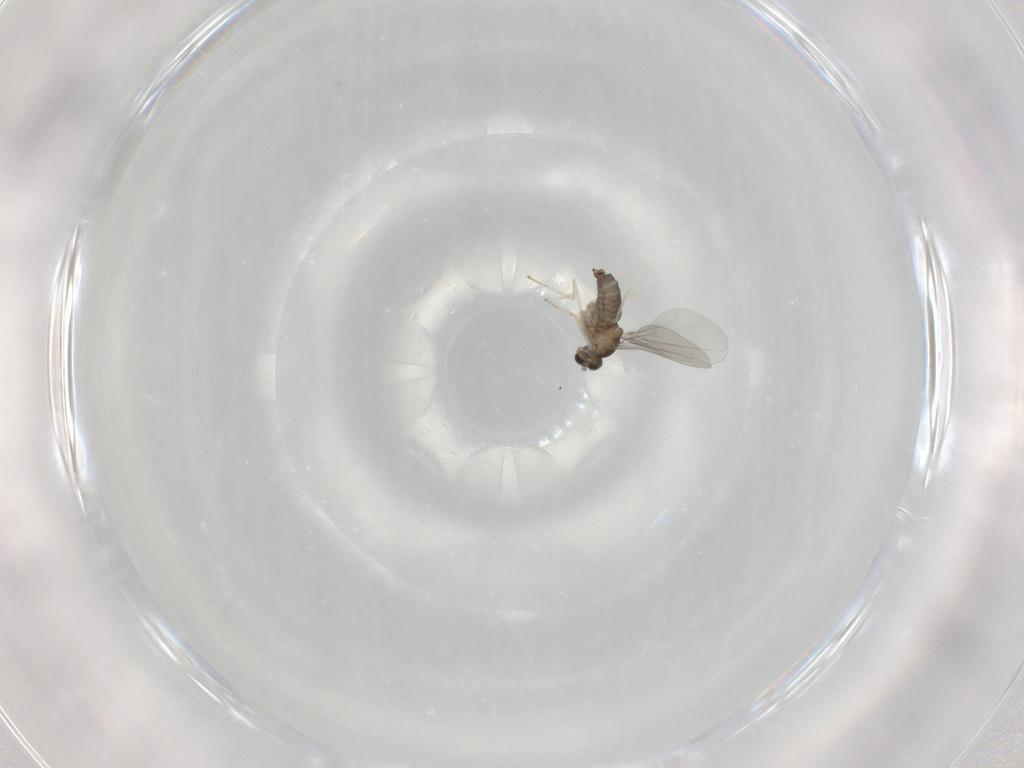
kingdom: Animalia
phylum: Arthropoda
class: Insecta
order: Diptera
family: Cecidomyiidae
